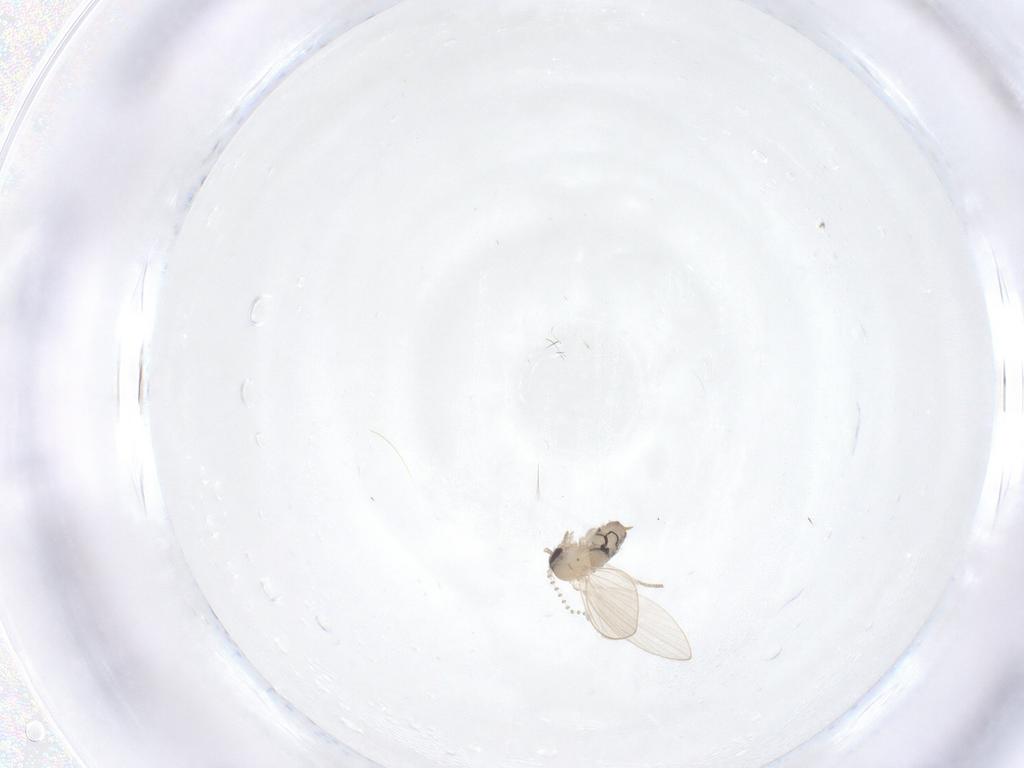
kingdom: Animalia
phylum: Arthropoda
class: Insecta
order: Diptera
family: Psychodidae
